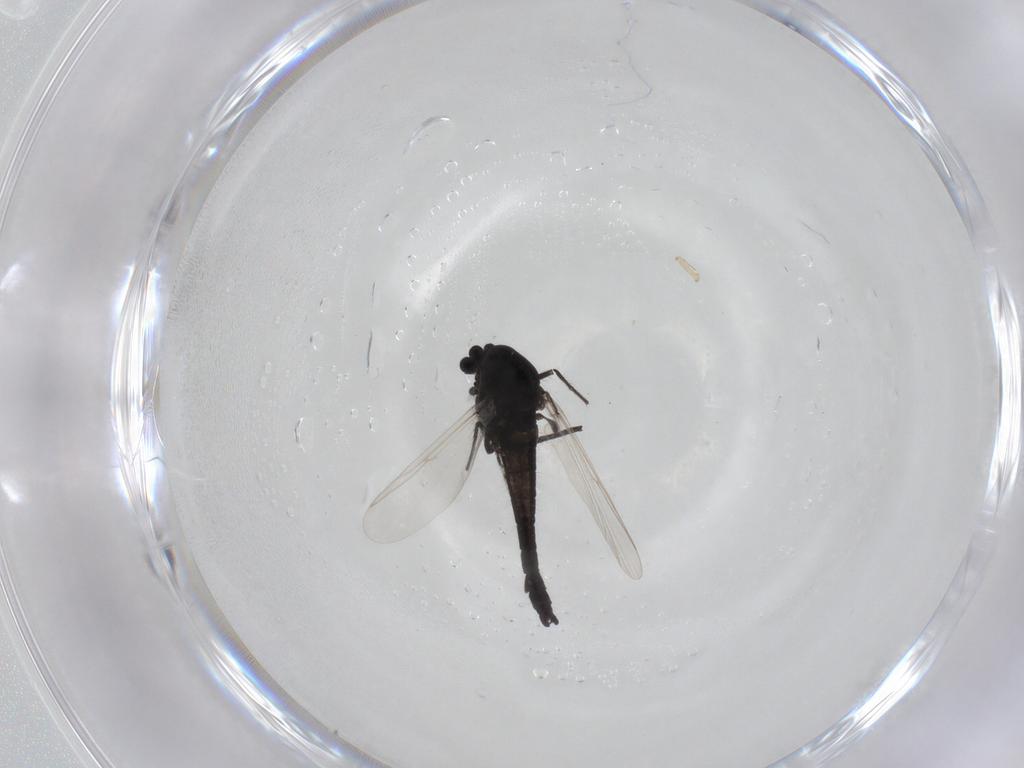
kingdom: Animalia
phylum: Arthropoda
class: Insecta
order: Diptera
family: Chironomidae
